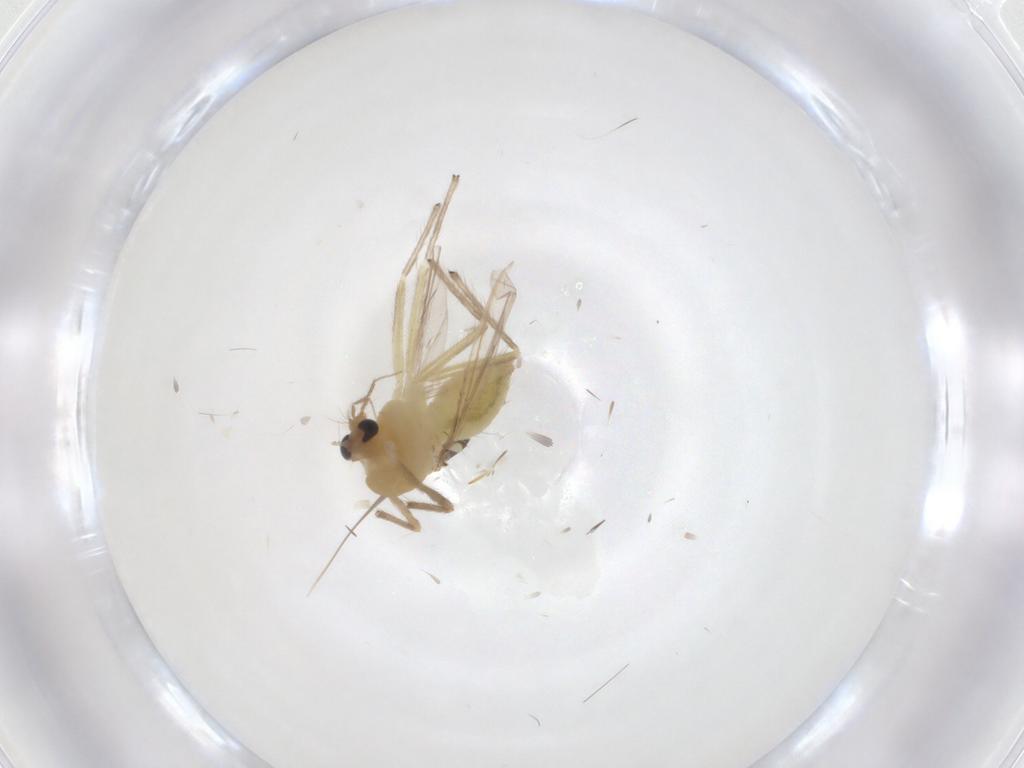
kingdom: Animalia
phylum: Arthropoda
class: Insecta
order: Diptera
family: Chironomidae
